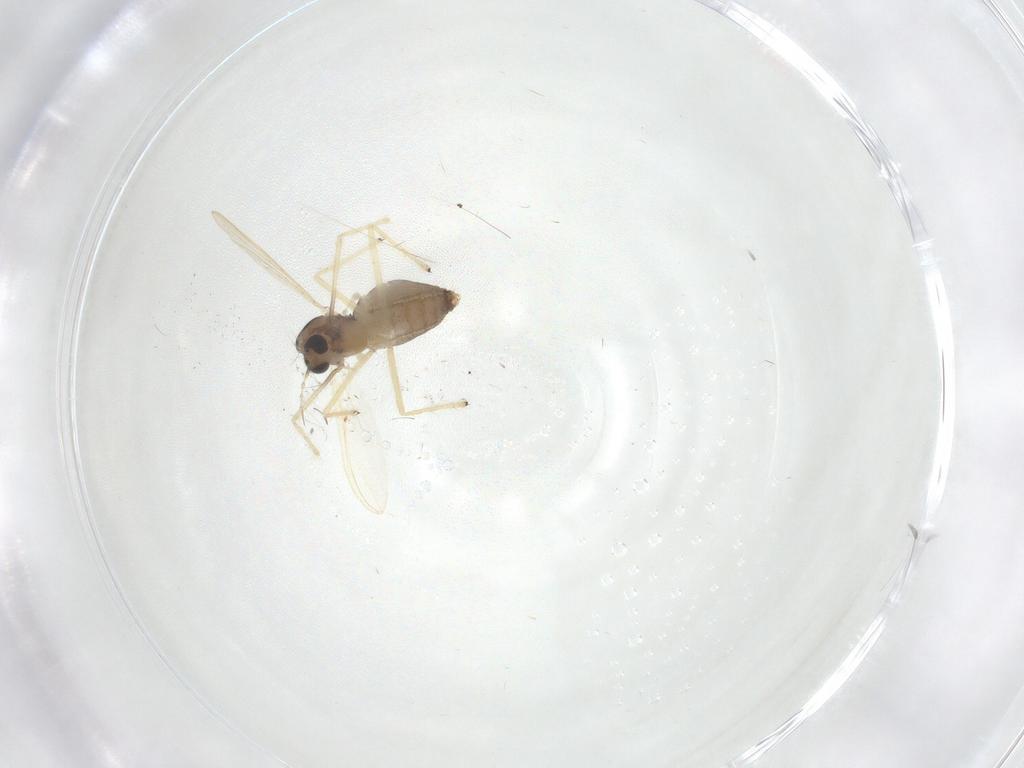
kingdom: Animalia
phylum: Arthropoda
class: Insecta
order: Diptera
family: Chironomidae
